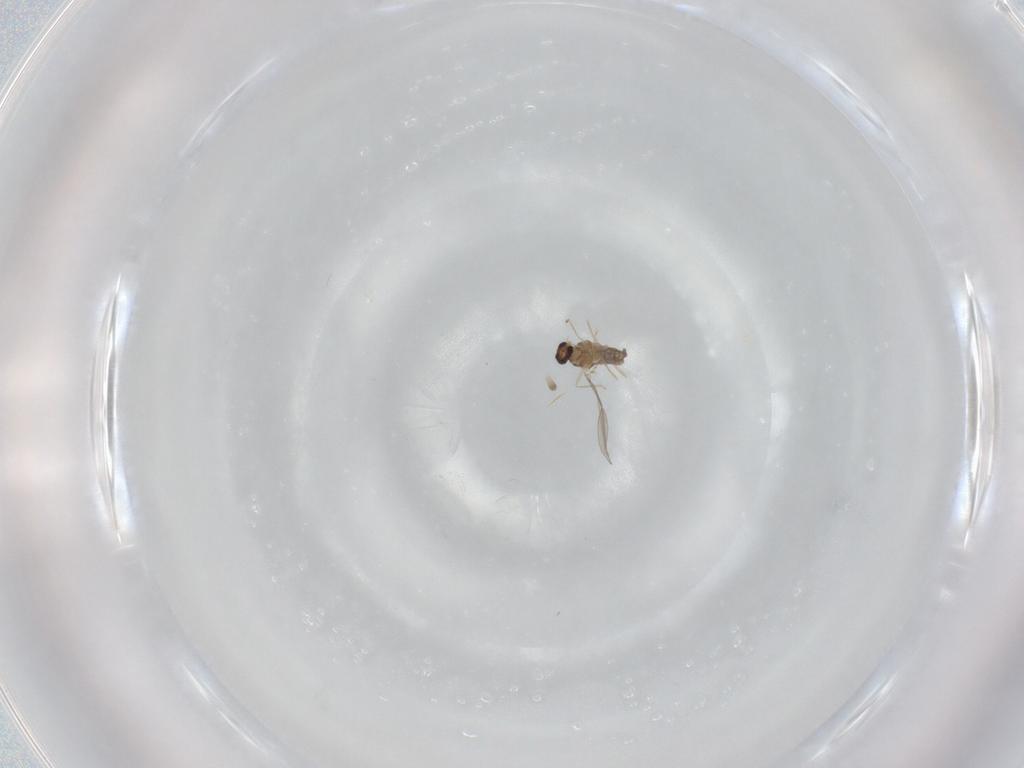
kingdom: Animalia
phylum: Arthropoda
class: Insecta
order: Diptera
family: Dolichopodidae
